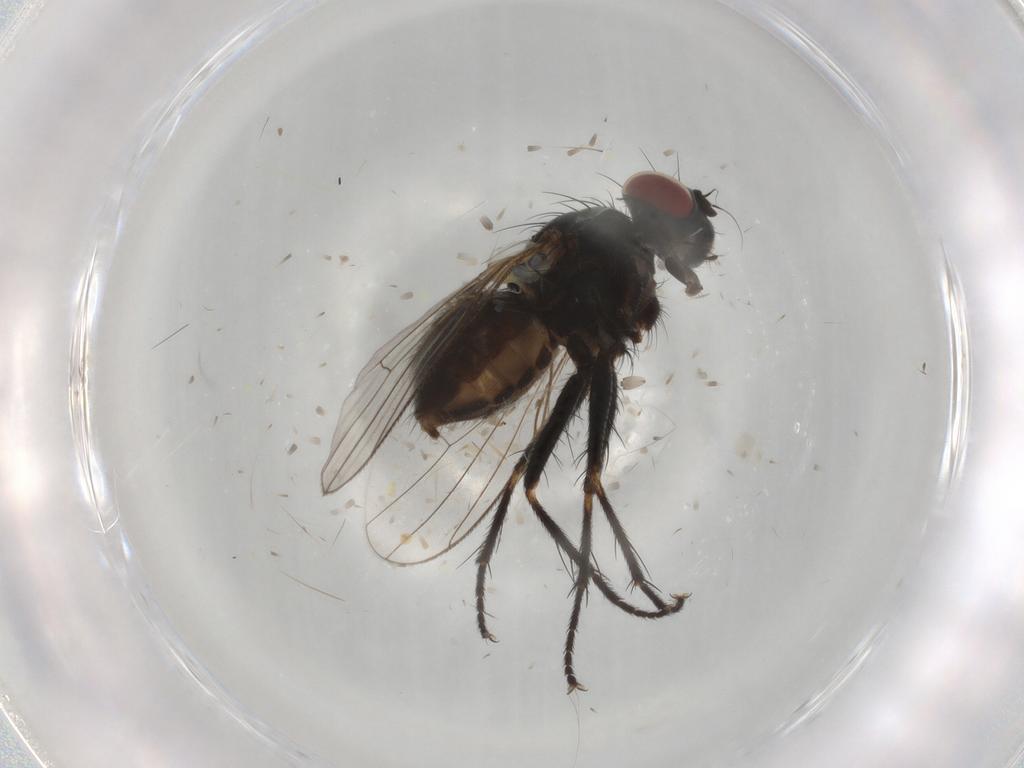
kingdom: Animalia
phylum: Arthropoda
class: Insecta
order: Diptera
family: Muscidae
